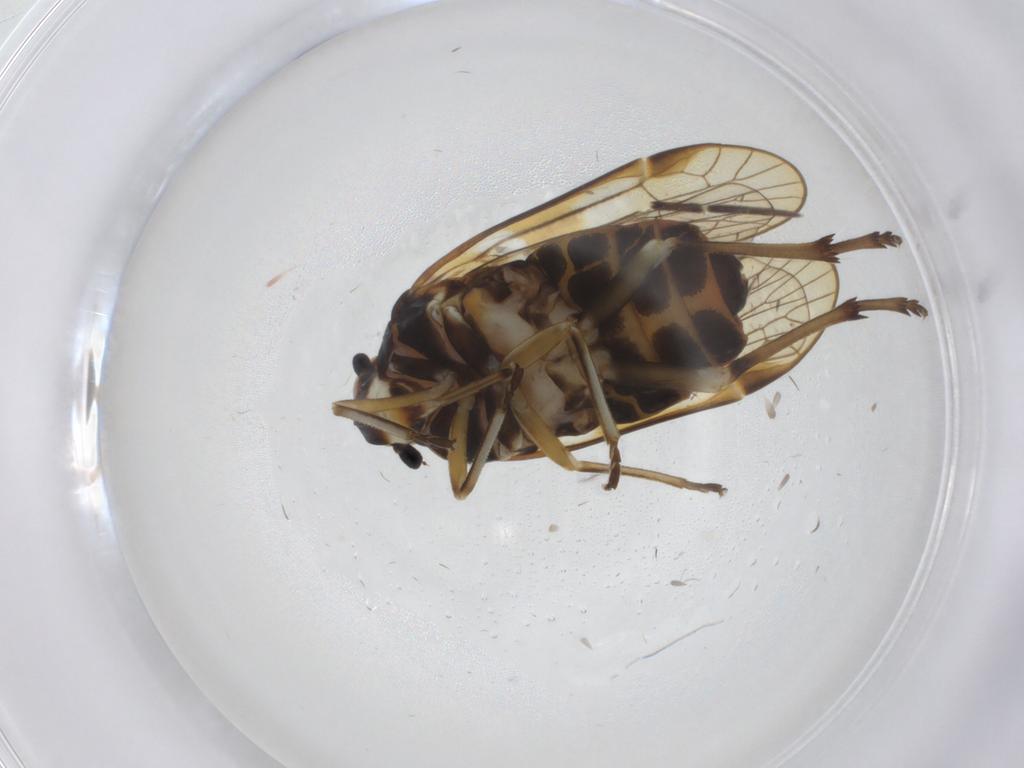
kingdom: Animalia
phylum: Arthropoda
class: Insecta
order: Hemiptera
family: Kinnaridae
